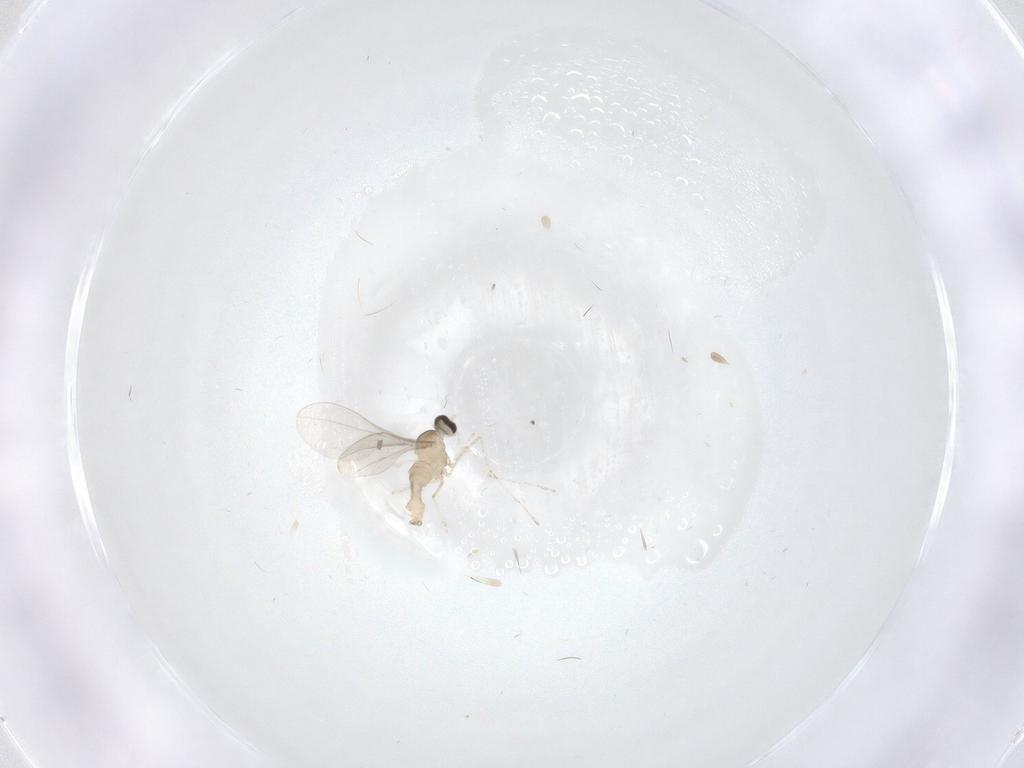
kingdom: Animalia
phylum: Arthropoda
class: Insecta
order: Diptera
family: Cecidomyiidae
